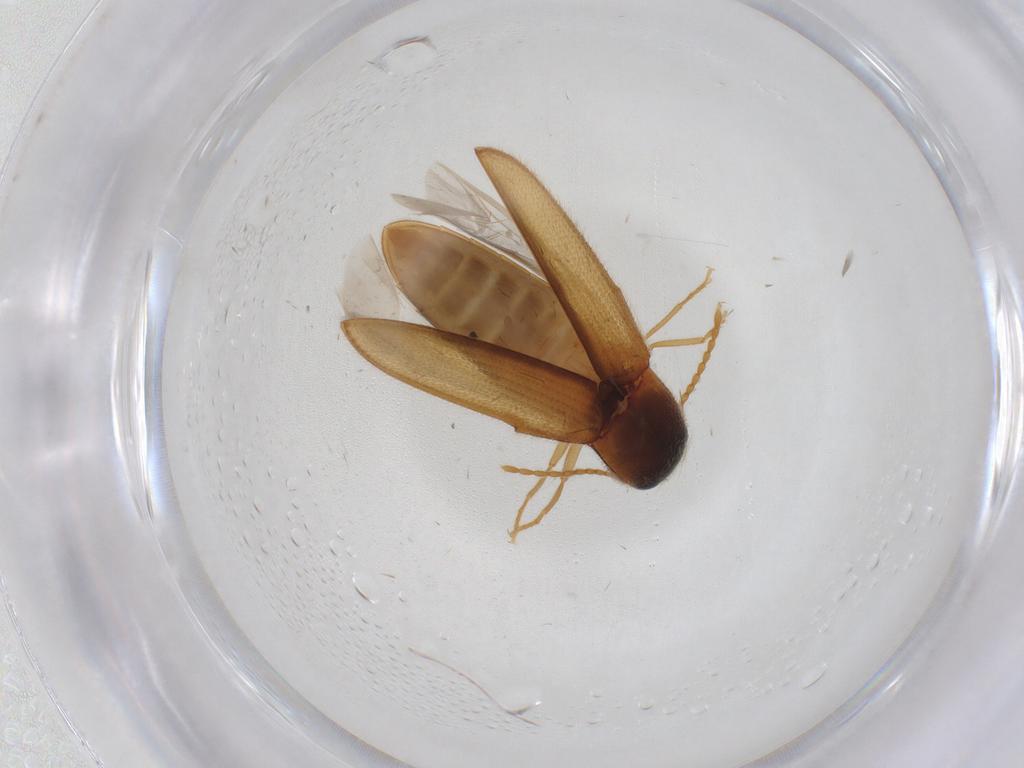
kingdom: Animalia
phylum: Arthropoda
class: Insecta
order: Coleoptera
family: Elateridae
